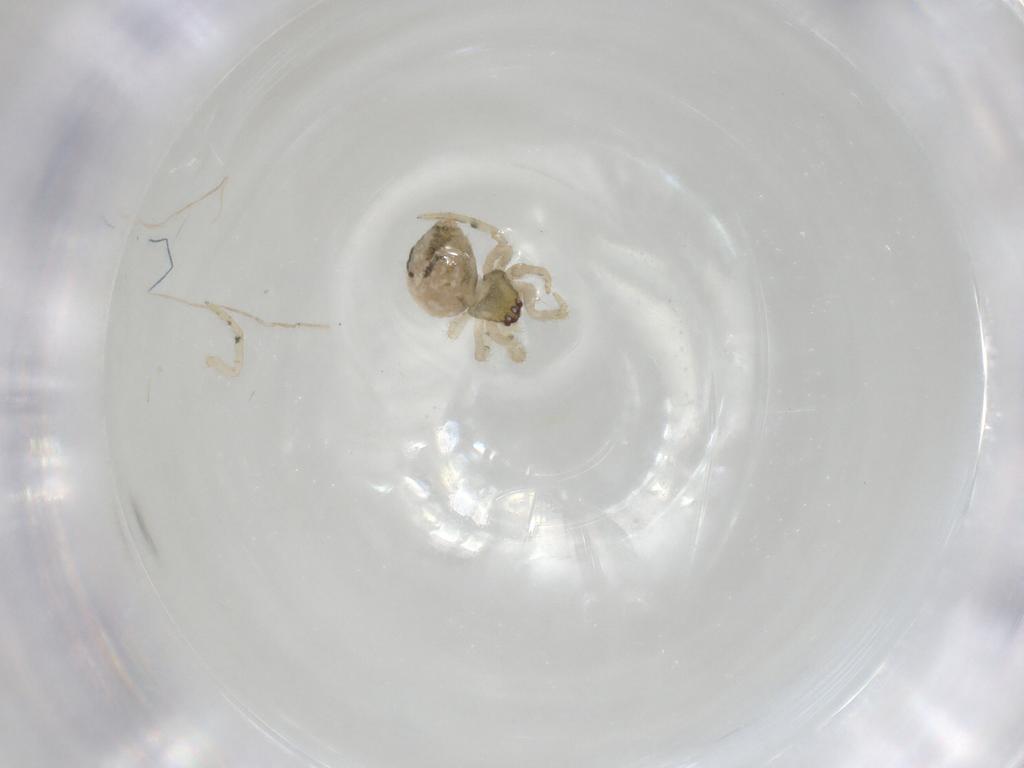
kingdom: Animalia
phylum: Arthropoda
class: Arachnida
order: Araneae
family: Theridiidae
